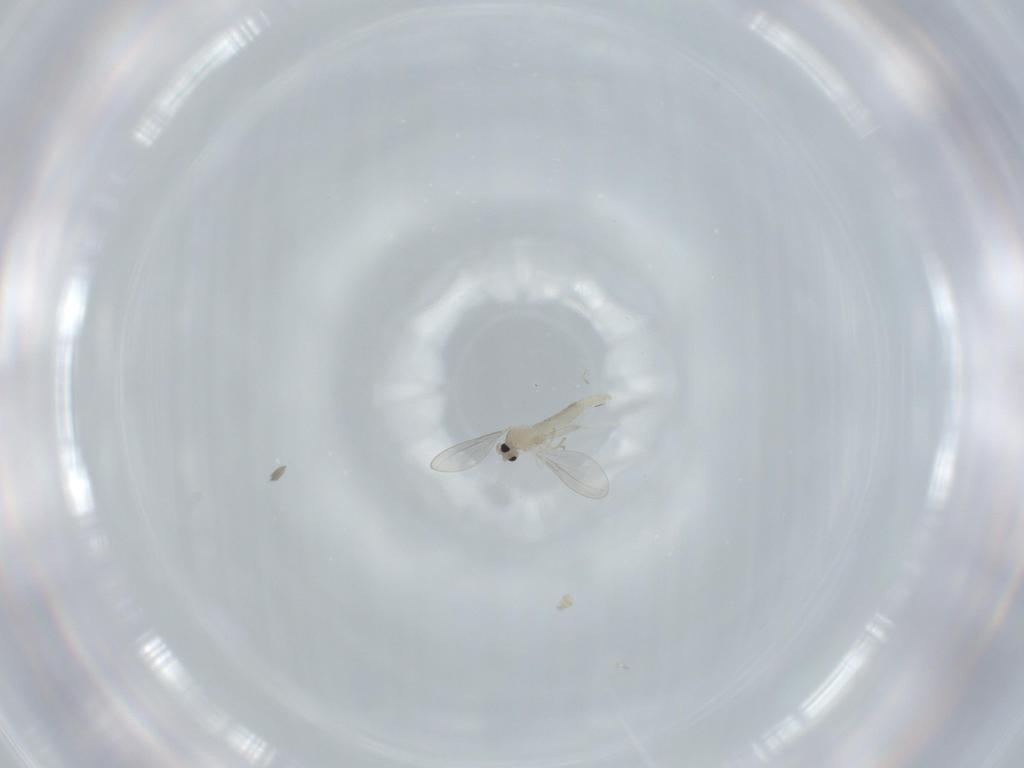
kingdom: Animalia
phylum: Arthropoda
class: Insecta
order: Diptera
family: Cecidomyiidae
